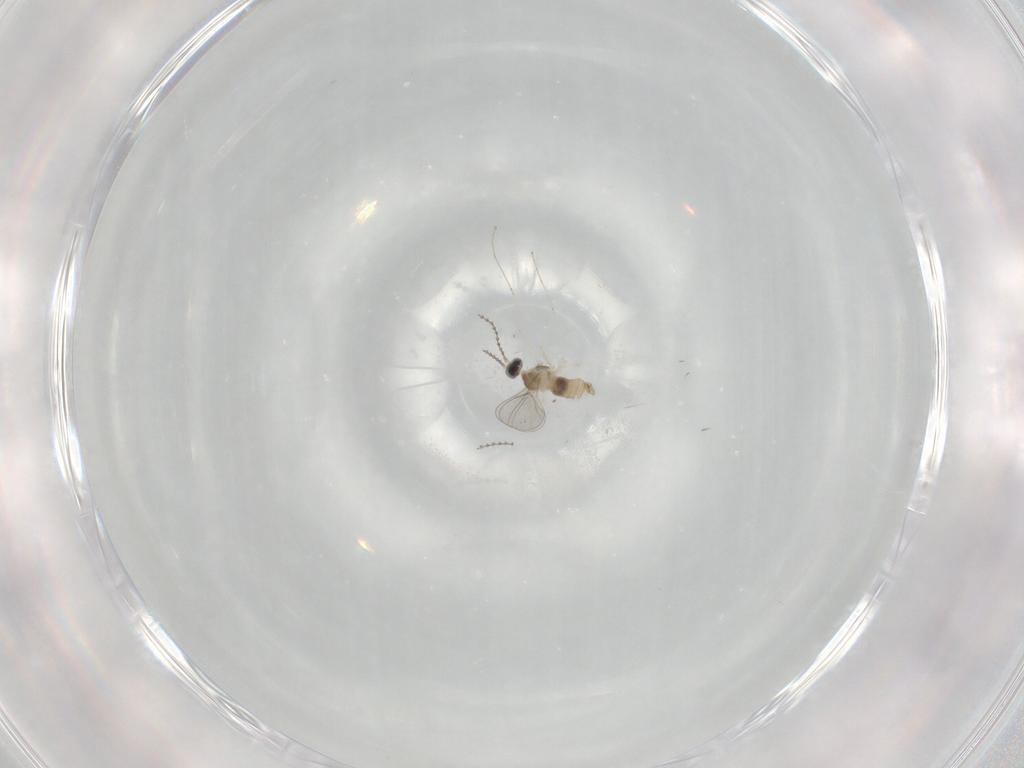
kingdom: Animalia
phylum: Arthropoda
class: Insecta
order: Diptera
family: Cecidomyiidae
